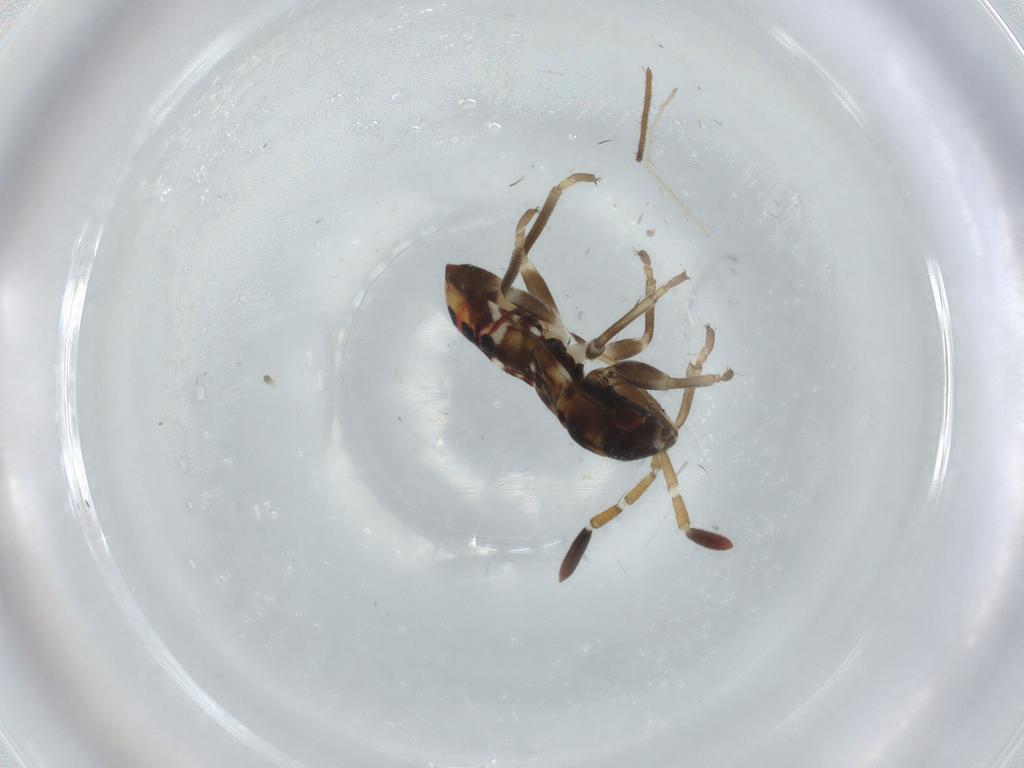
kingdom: Animalia
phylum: Arthropoda
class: Insecta
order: Hemiptera
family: Rhyparochromidae
